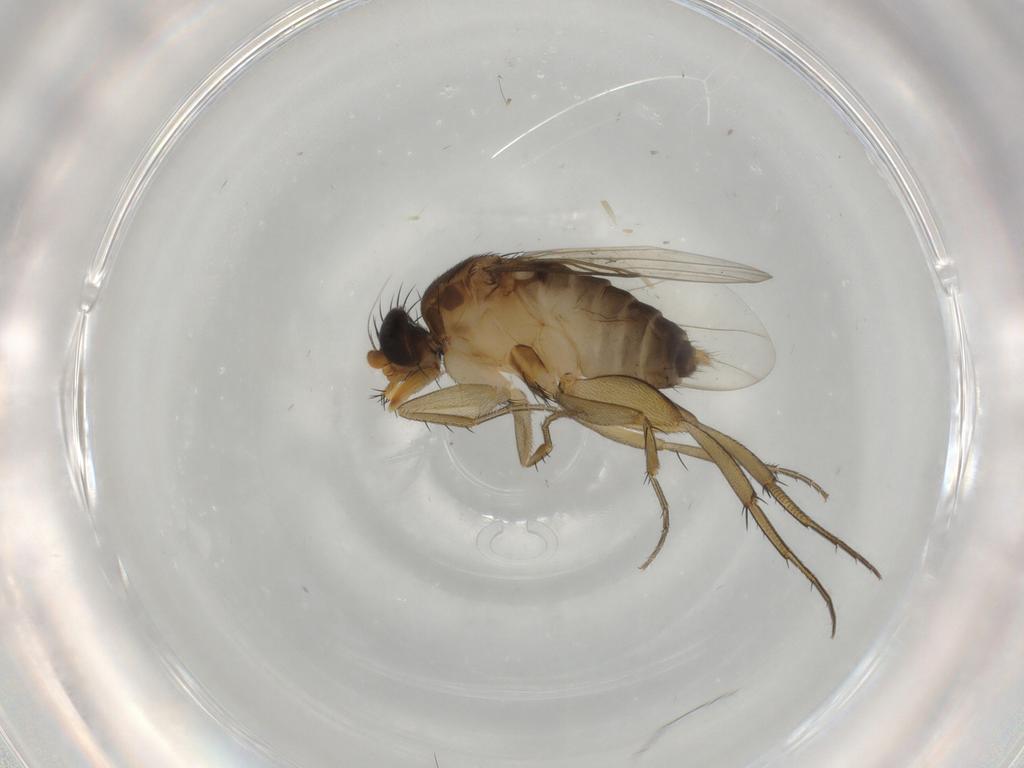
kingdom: Animalia
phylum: Arthropoda
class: Insecta
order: Diptera
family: Phoridae
